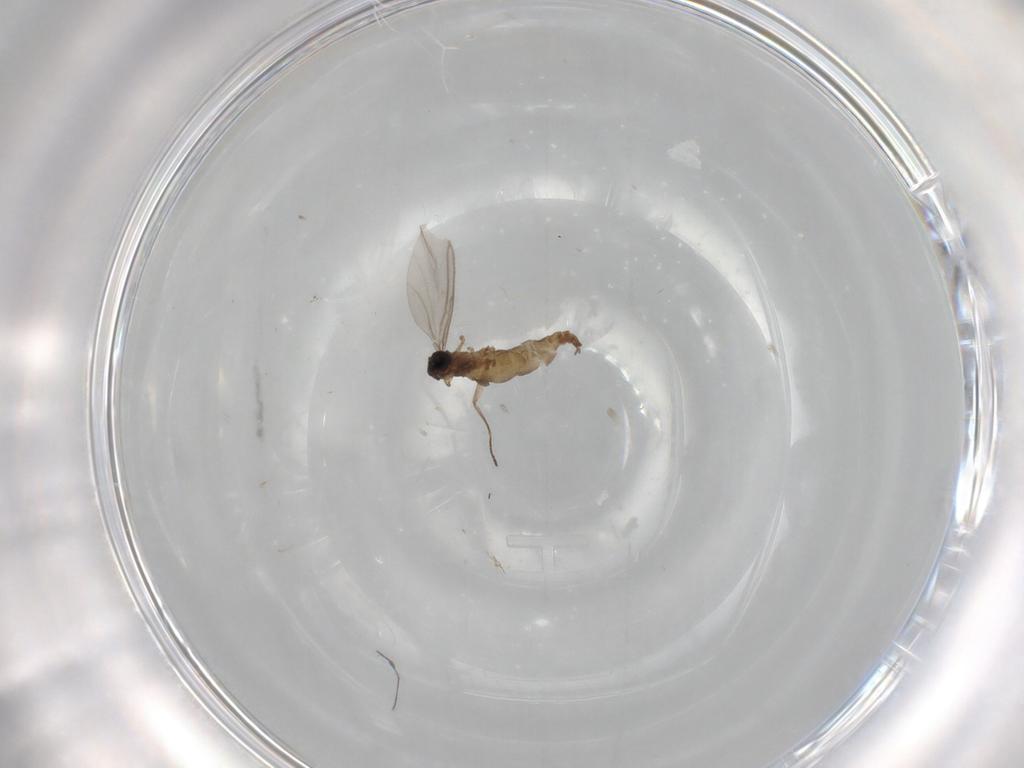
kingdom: Animalia
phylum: Arthropoda
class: Insecta
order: Diptera
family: Sciaridae
